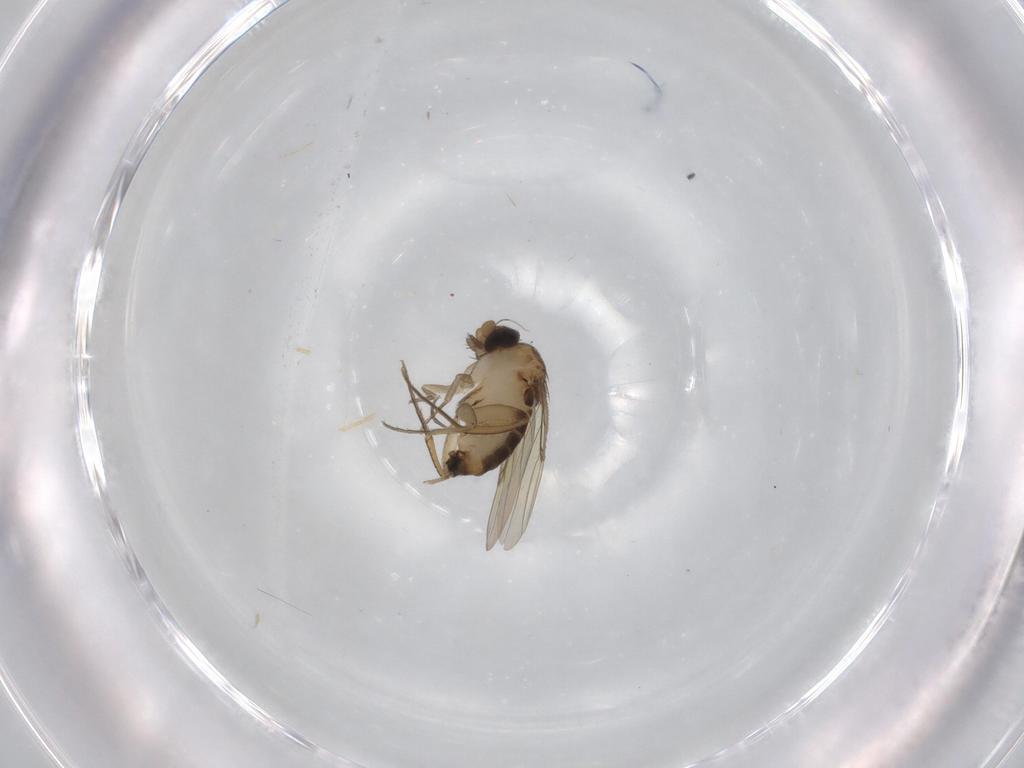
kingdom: Animalia
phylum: Arthropoda
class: Insecta
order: Diptera
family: Phoridae
